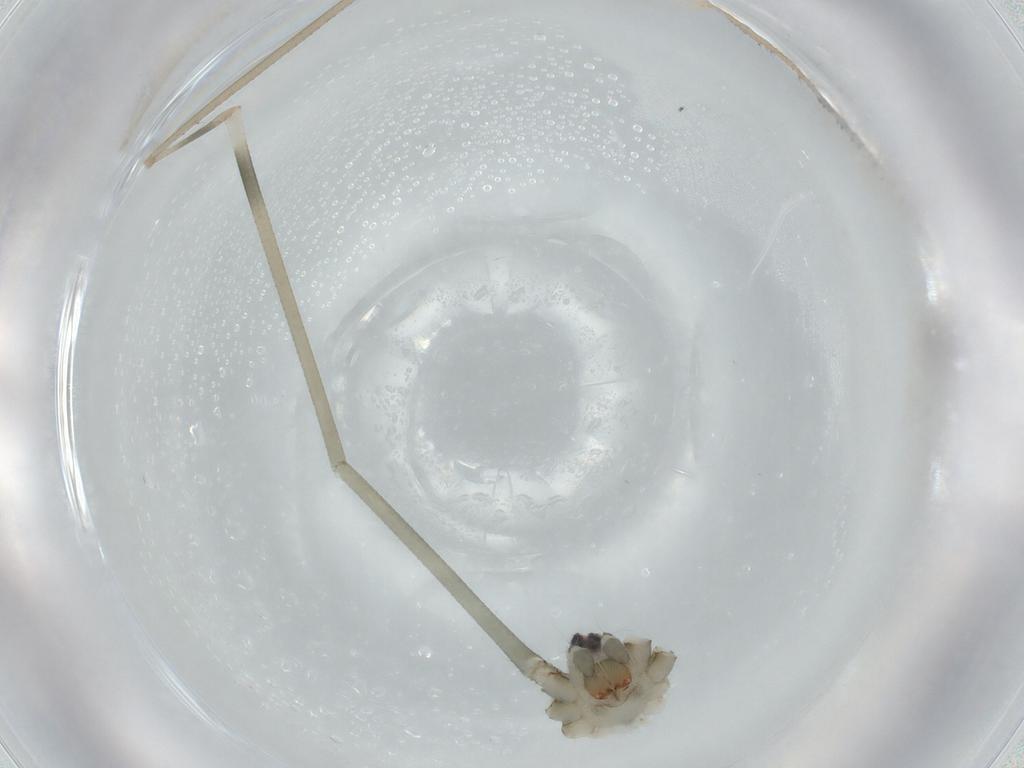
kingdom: Animalia
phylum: Arthropoda
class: Arachnida
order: Araneae
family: Pholcidae
